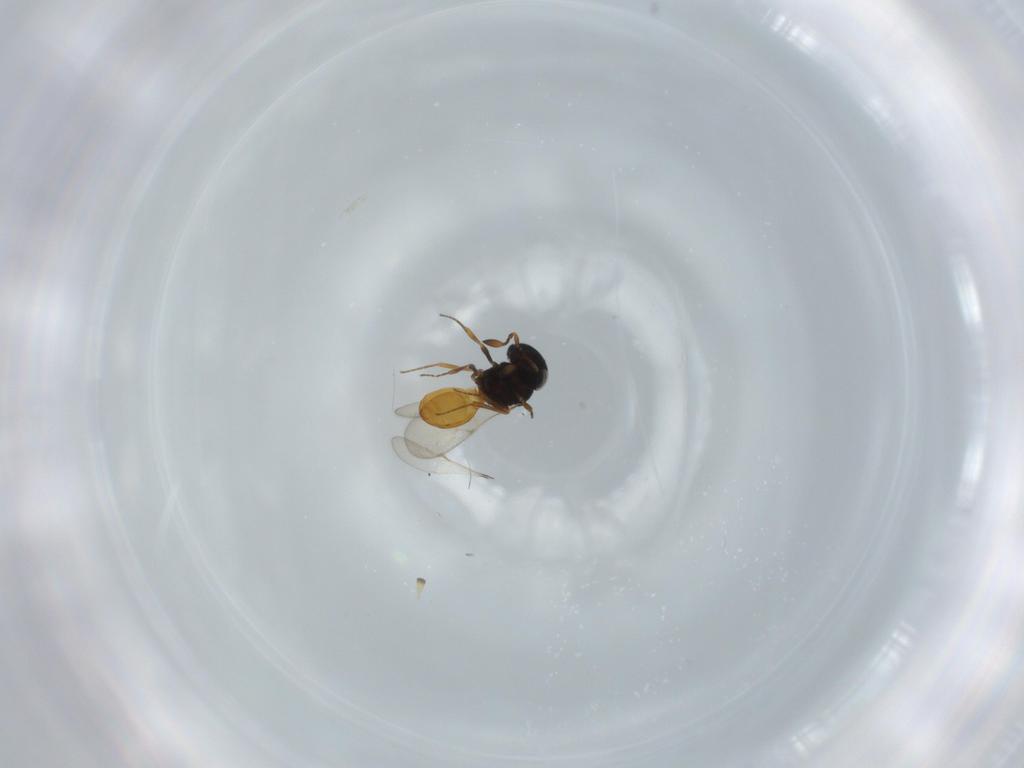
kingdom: Animalia
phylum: Arthropoda
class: Insecta
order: Hymenoptera
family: Scelionidae
